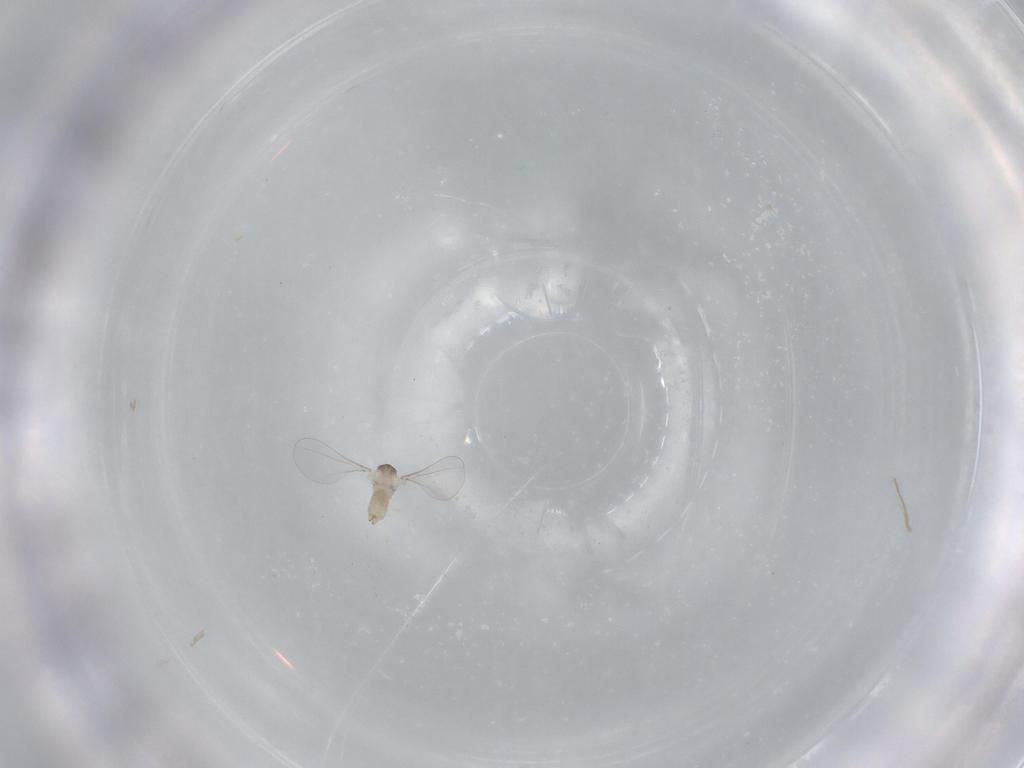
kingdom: Animalia
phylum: Arthropoda
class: Insecta
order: Diptera
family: Cecidomyiidae
